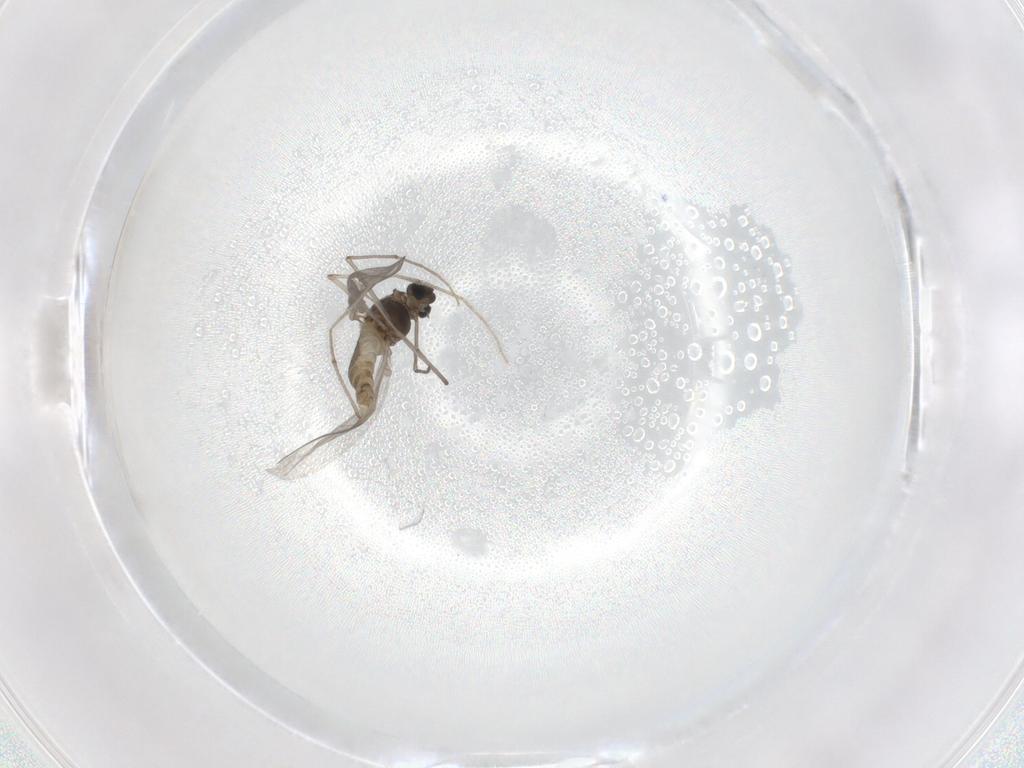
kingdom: Animalia
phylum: Arthropoda
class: Insecta
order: Diptera
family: Chironomidae
